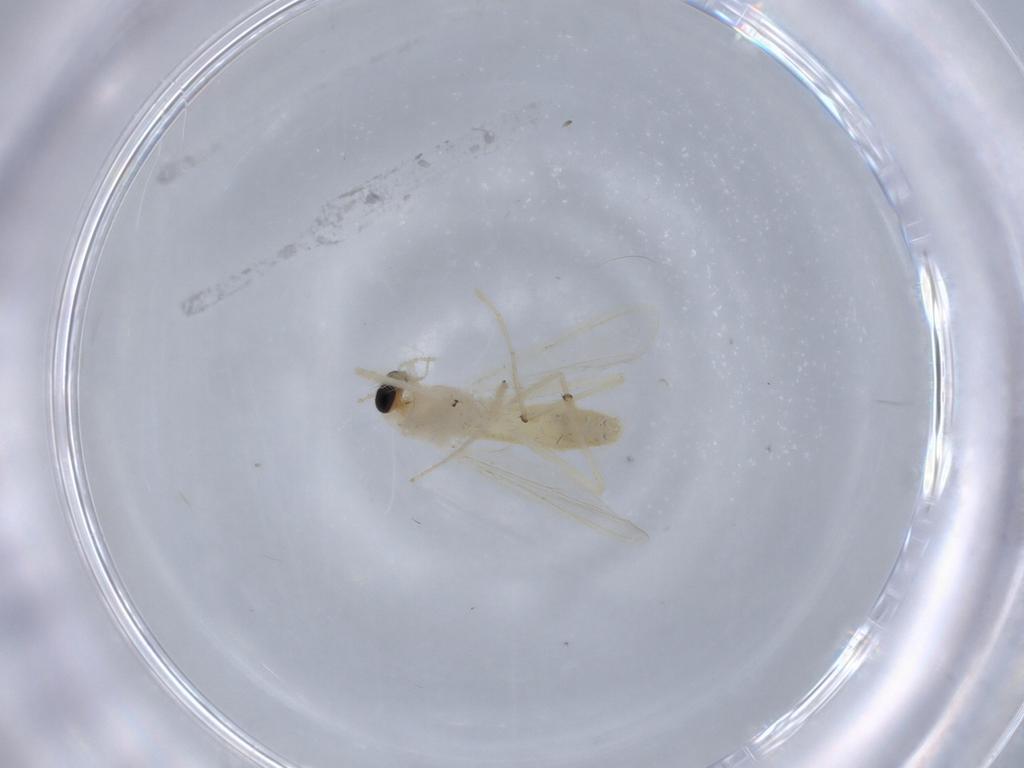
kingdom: Animalia
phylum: Arthropoda
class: Insecta
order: Diptera
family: Chironomidae
